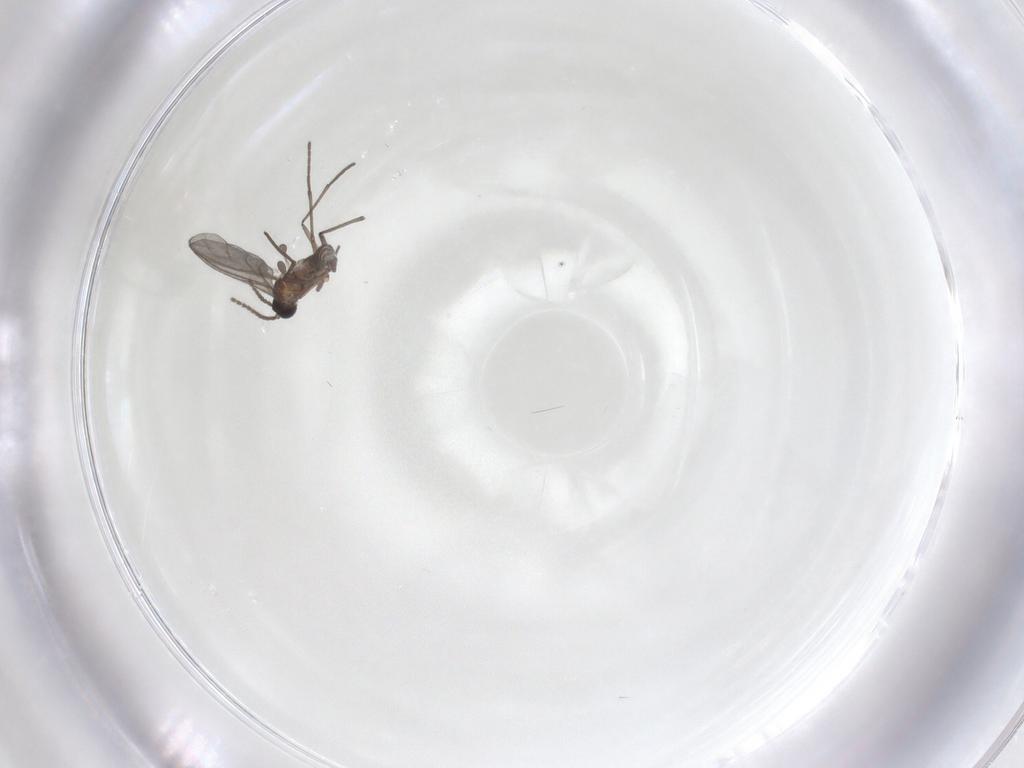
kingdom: Animalia
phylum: Arthropoda
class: Insecta
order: Diptera
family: Sciaridae
